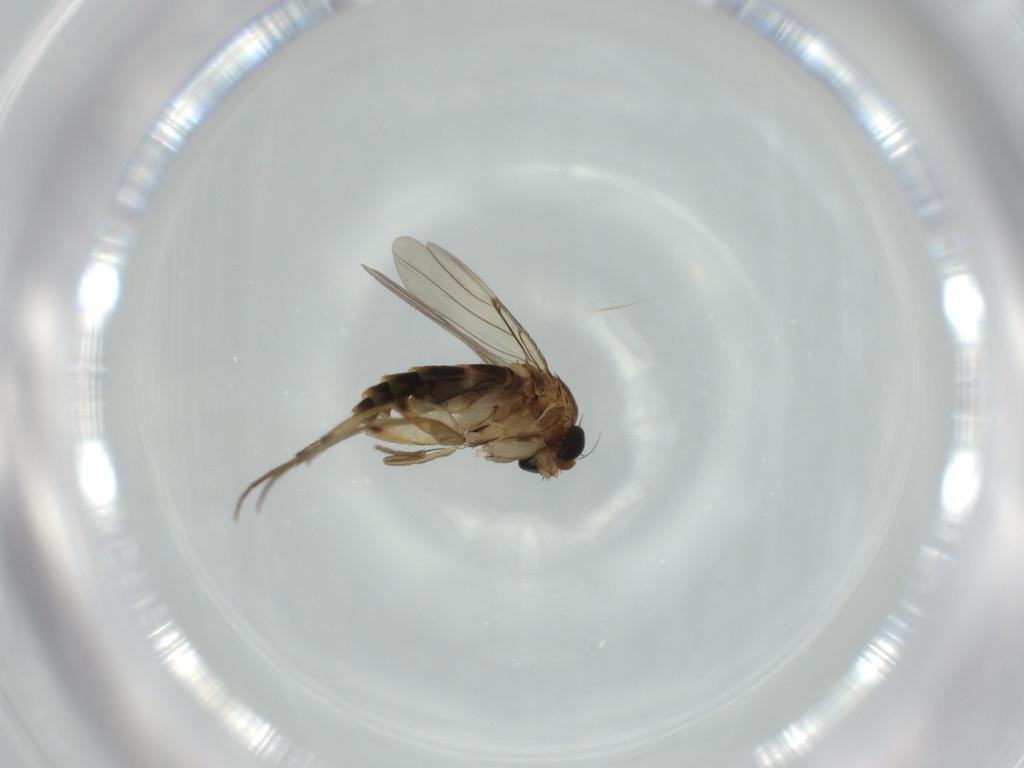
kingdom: Animalia
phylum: Arthropoda
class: Insecta
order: Diptera
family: Phoridae
